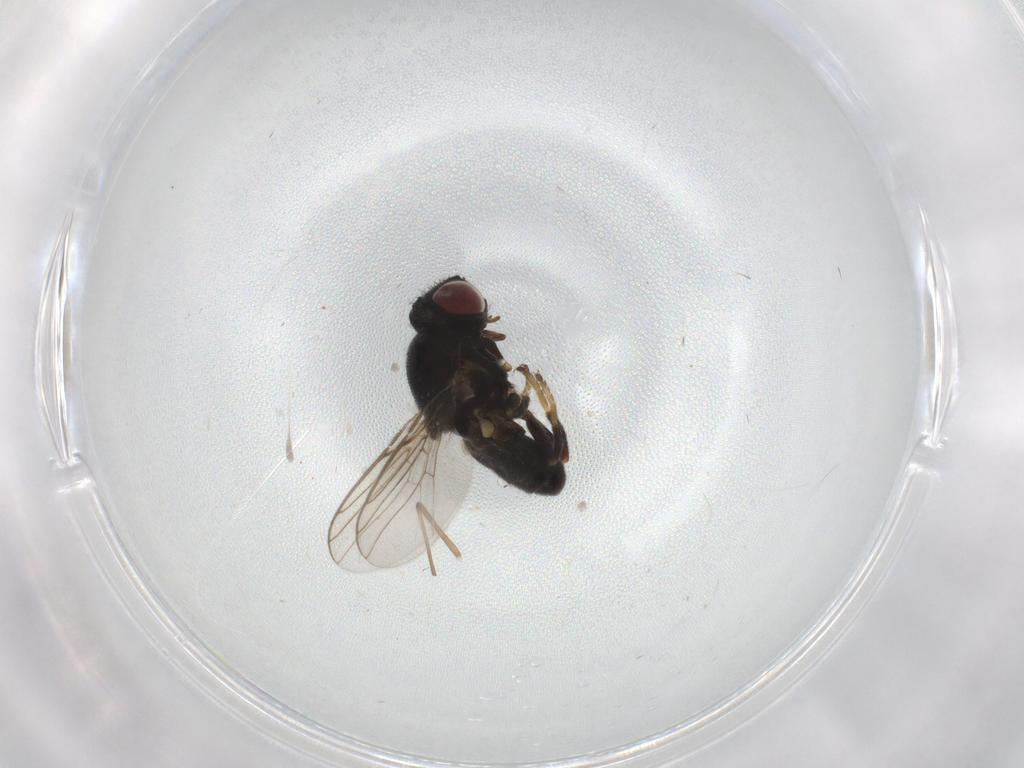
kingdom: Animalia
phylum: Arthropoda
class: Insecta
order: Diptera
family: Chloropidae
